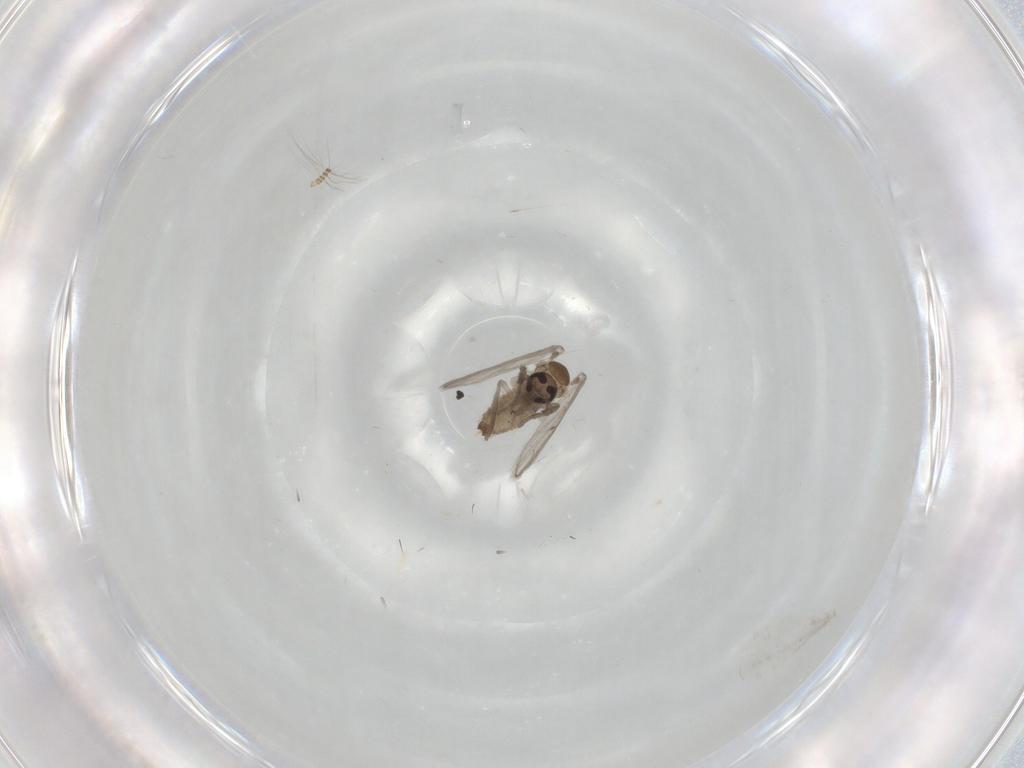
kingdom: Animalia
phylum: Arthropoda
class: Insecta
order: Diptera
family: Psychodidae
